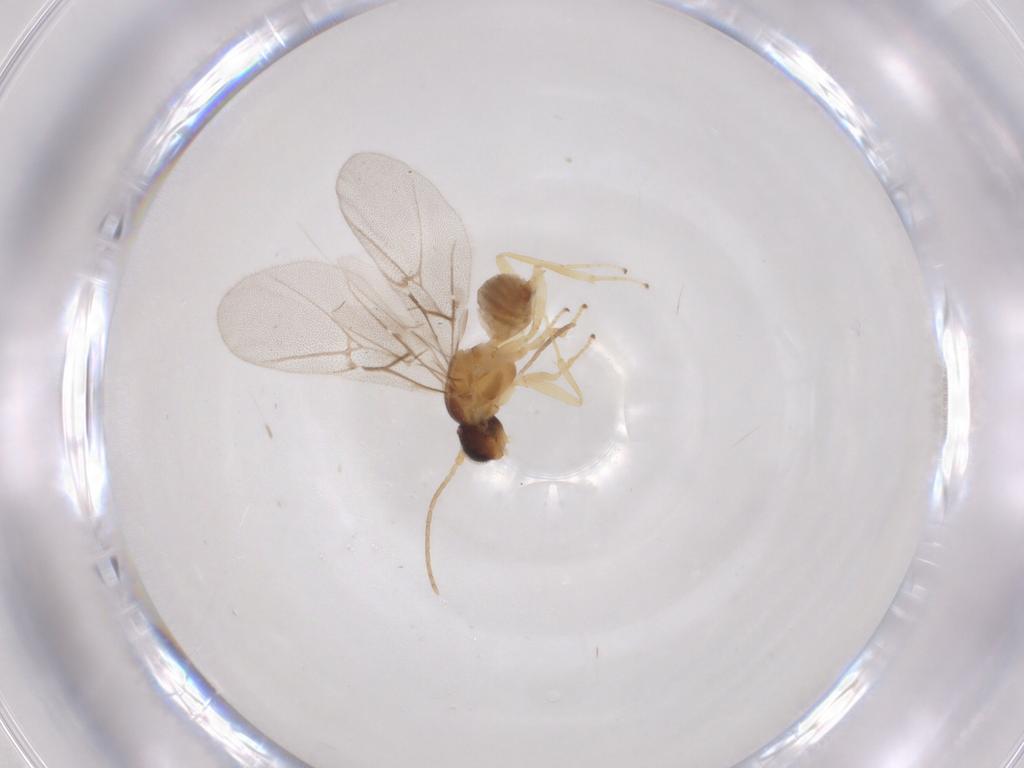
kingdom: Animalia
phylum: Arthropoda
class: Insecta
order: Hymenoptera
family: Cynipidae
